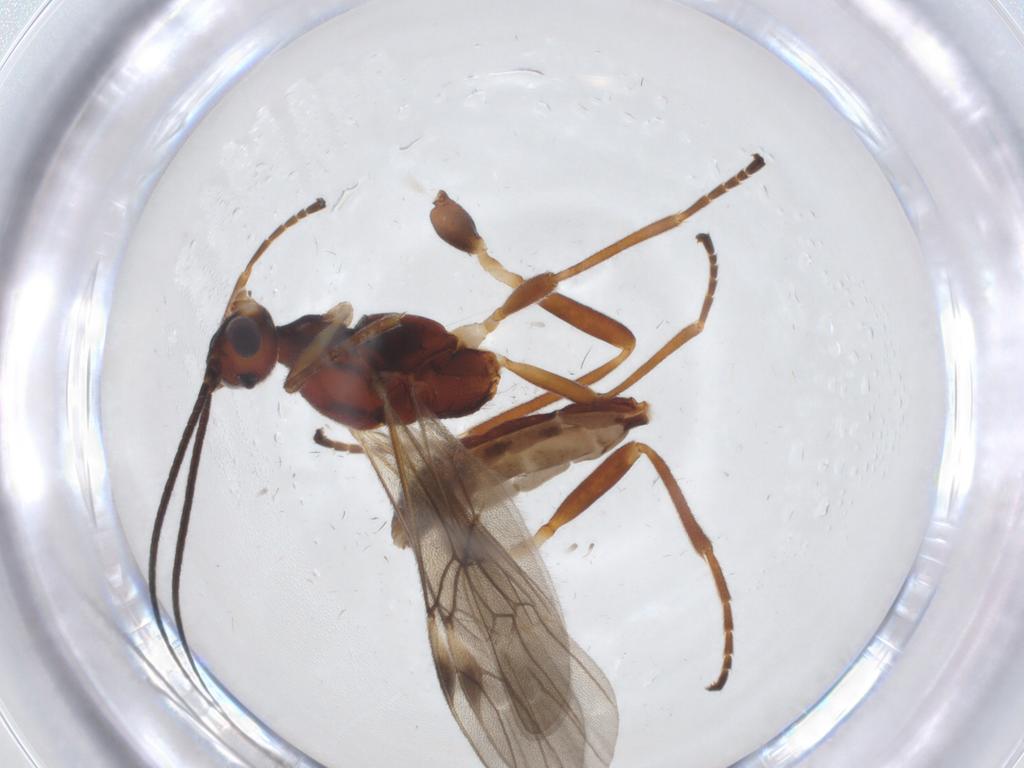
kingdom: Animalia
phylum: Arthropoda
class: Insecta
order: Hymenoptera
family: Braconidae
